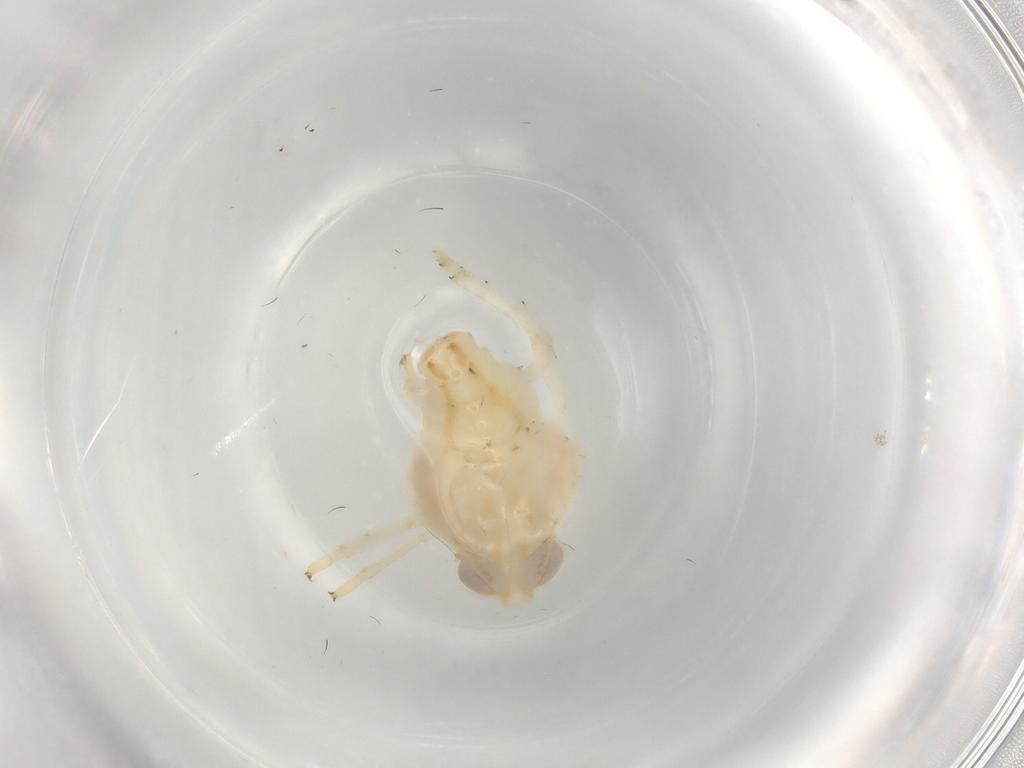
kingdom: Animalia
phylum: Arthropoda
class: Insecta
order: Hemiptera
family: Nogodinidae
